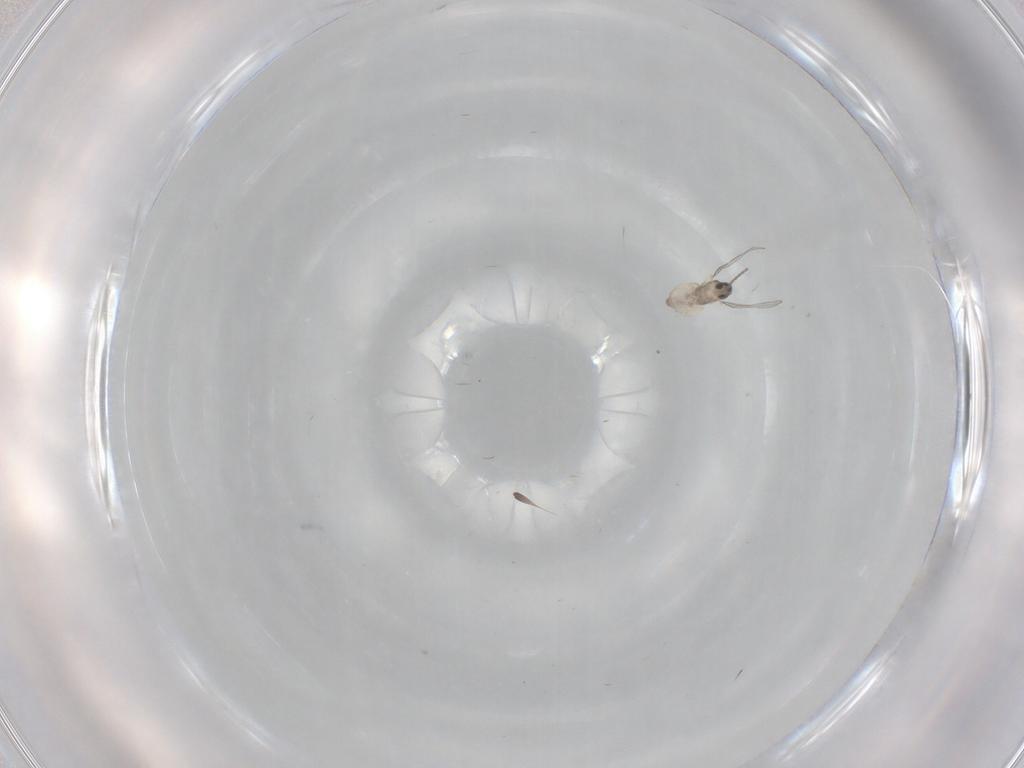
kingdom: Animalia
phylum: Arthropoda
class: Insecta
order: Diptera
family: Cecidomyiidae
